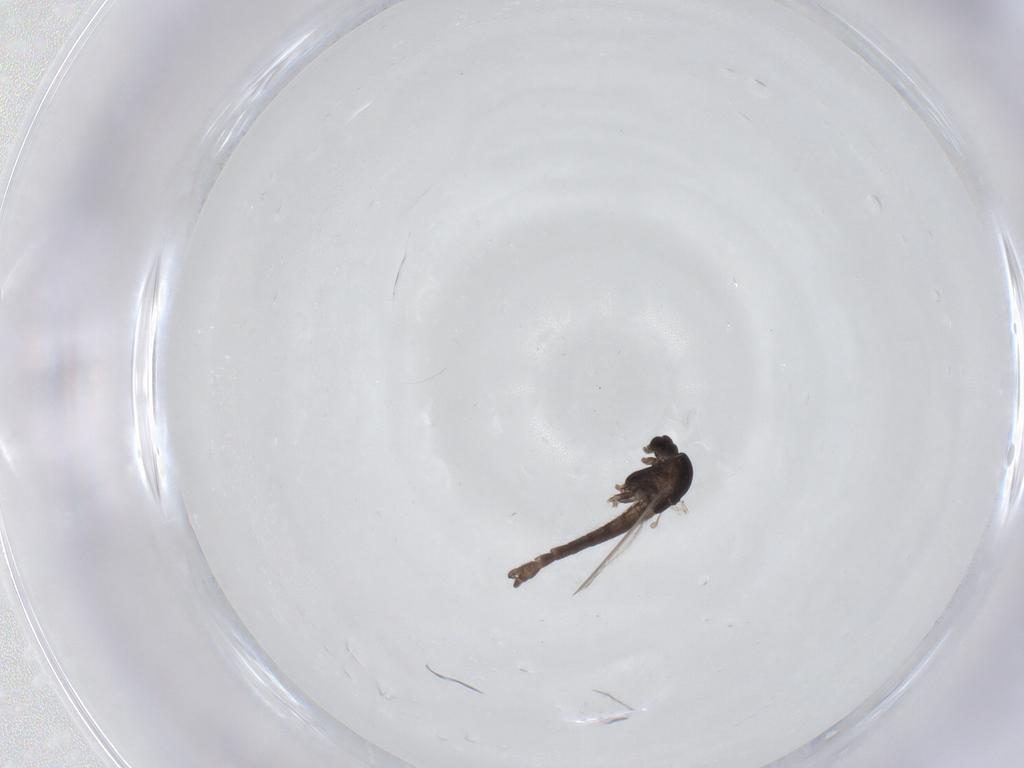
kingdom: Animalia
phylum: Arthropoda
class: Insecta
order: Diptera
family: Chironomidae
